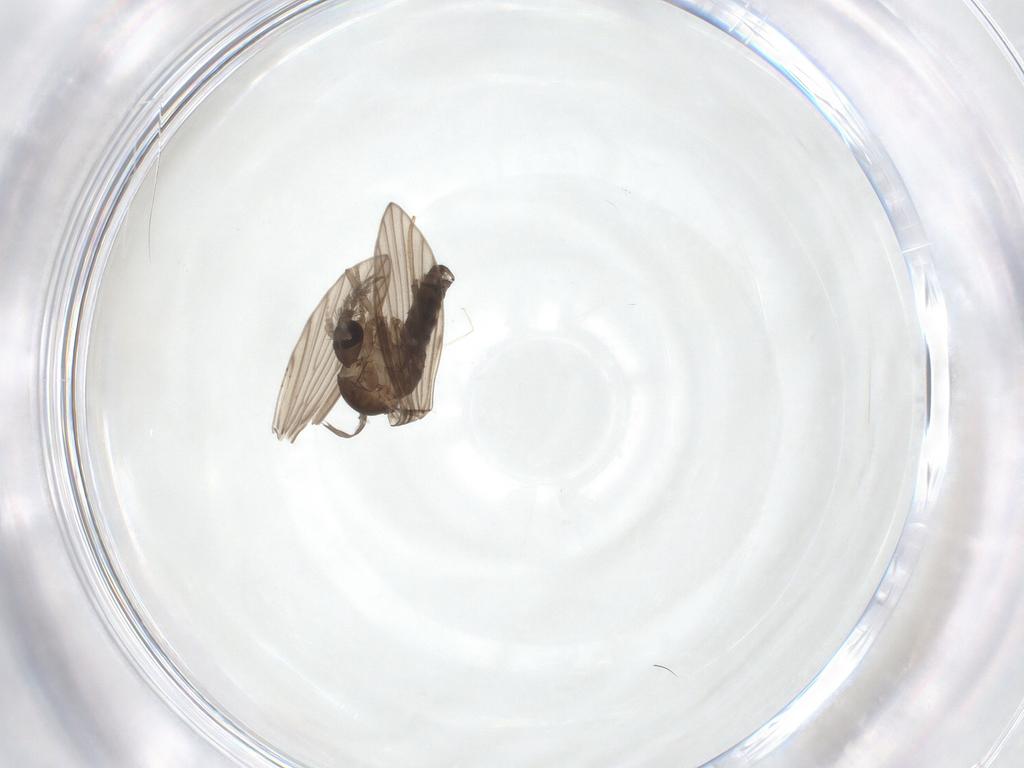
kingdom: Animalia
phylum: Arthropoda
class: Insecta
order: Diptera
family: Psychodidae
